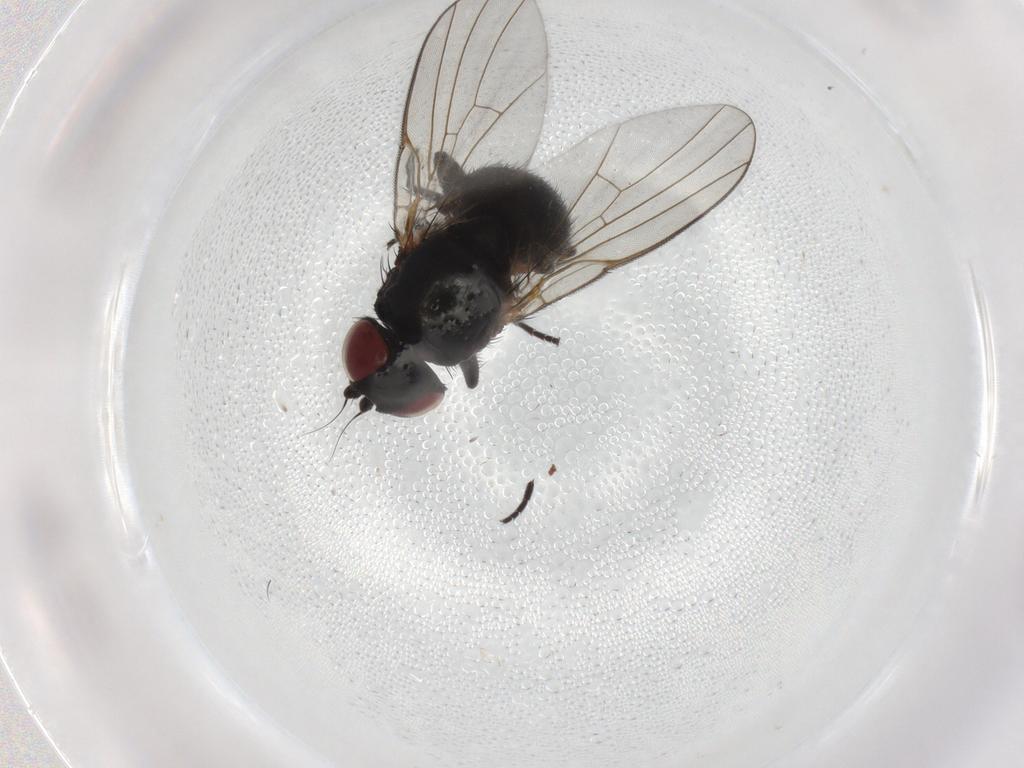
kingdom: Animalia
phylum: Arthropoda
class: Insecta
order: Diptera
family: Agromyzidae
